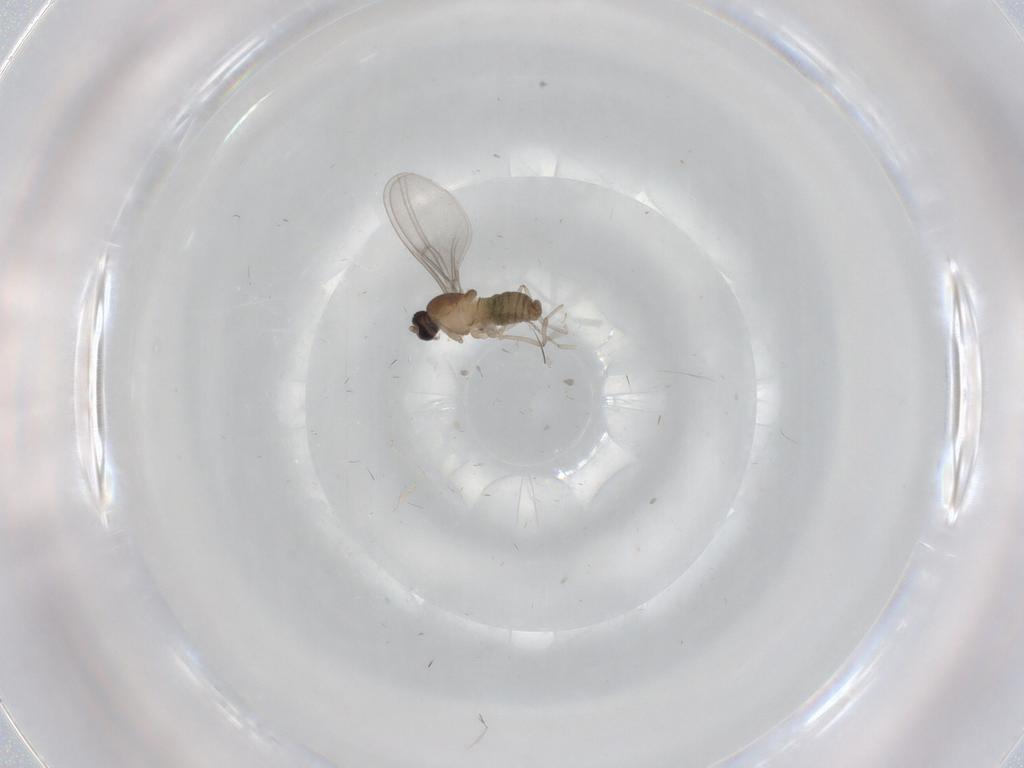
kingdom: Animalia
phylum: Arthropoda
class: Insecta
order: Diptera
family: Cecidomyiidae
